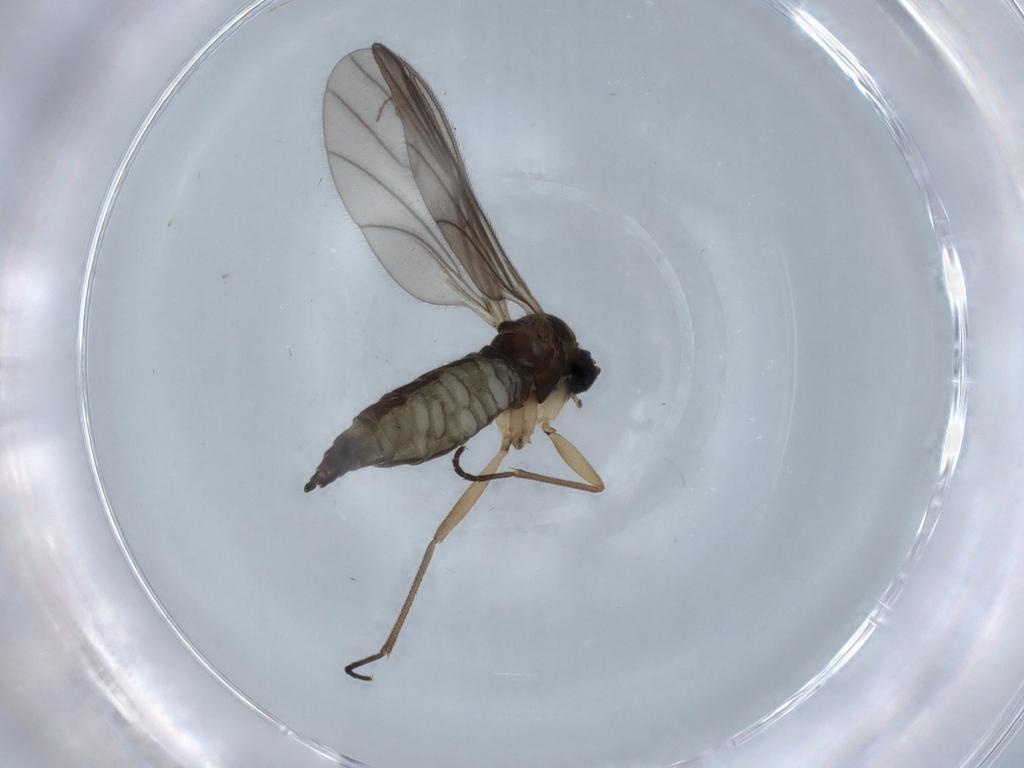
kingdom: Animalia
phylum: Arthropoda
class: Insecta
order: Diptera
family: Sciaridae
